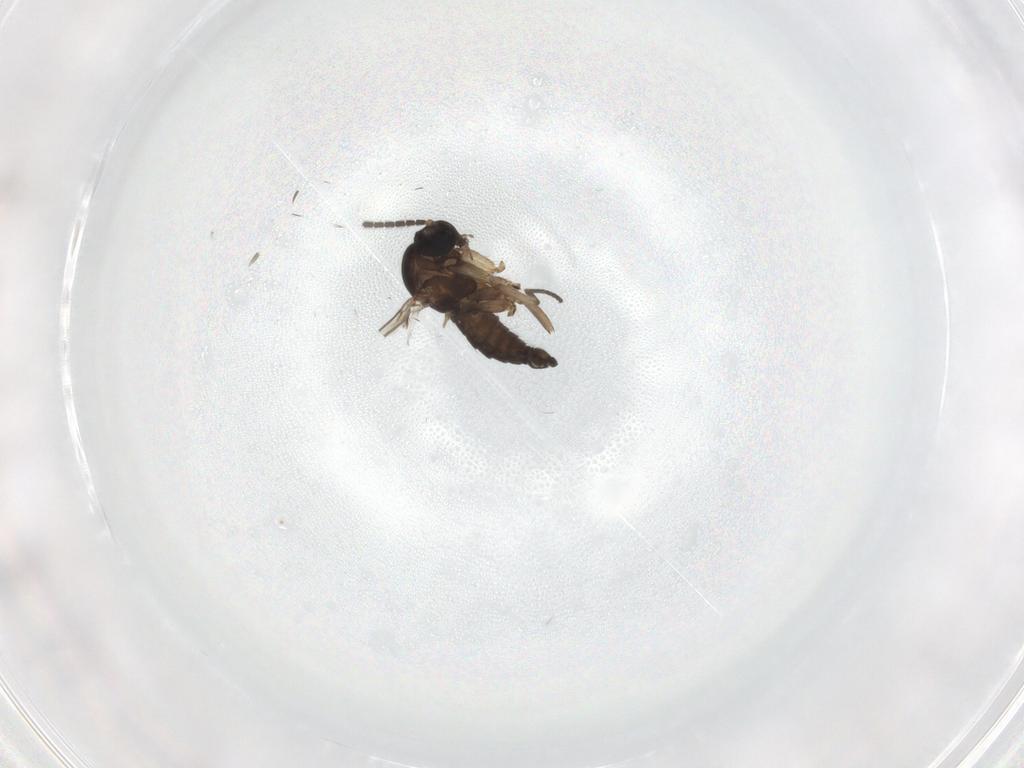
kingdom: Animalia
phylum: Arthropoda
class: Insecta
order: Diptera
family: Sciaridae
